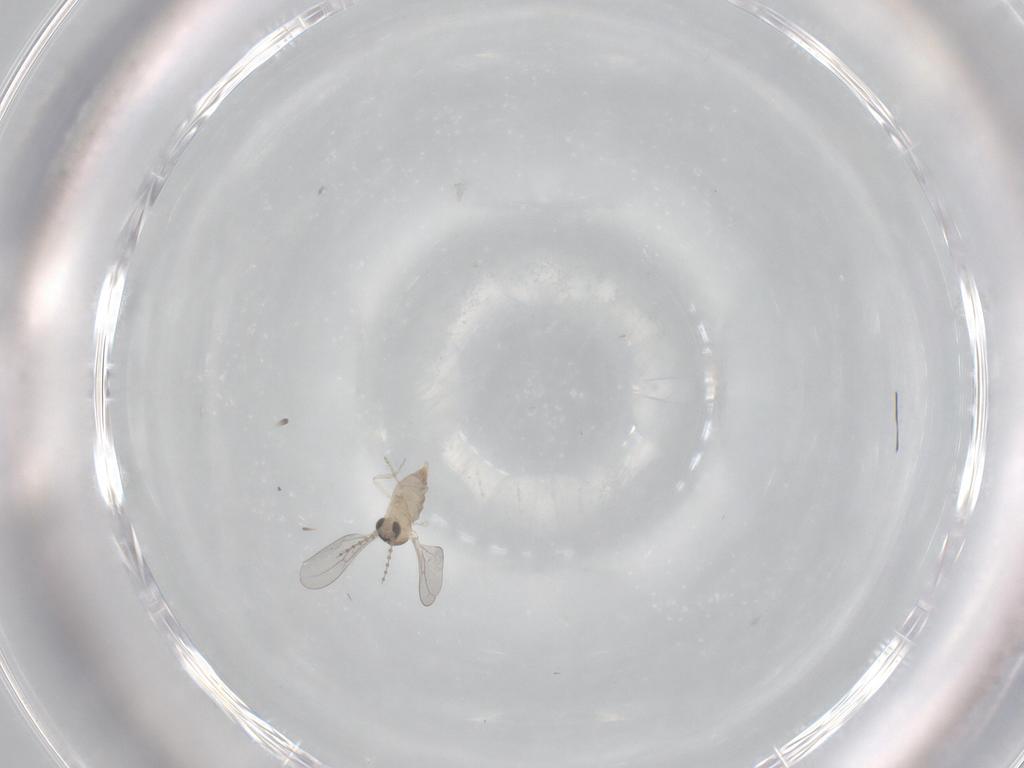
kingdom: Animalia
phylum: Arthropoda
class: Insecta
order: Diptera
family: Cecidomyiidae
